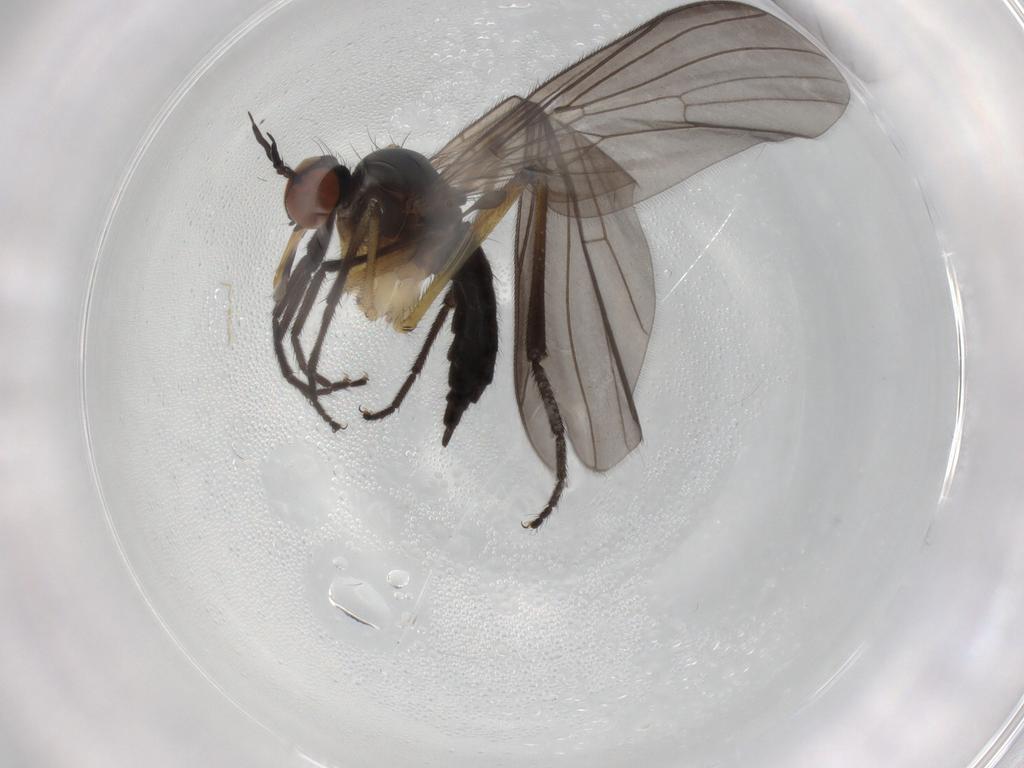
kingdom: Animalia
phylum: Arthropoda
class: Insecta
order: Diptera
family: Empididae
